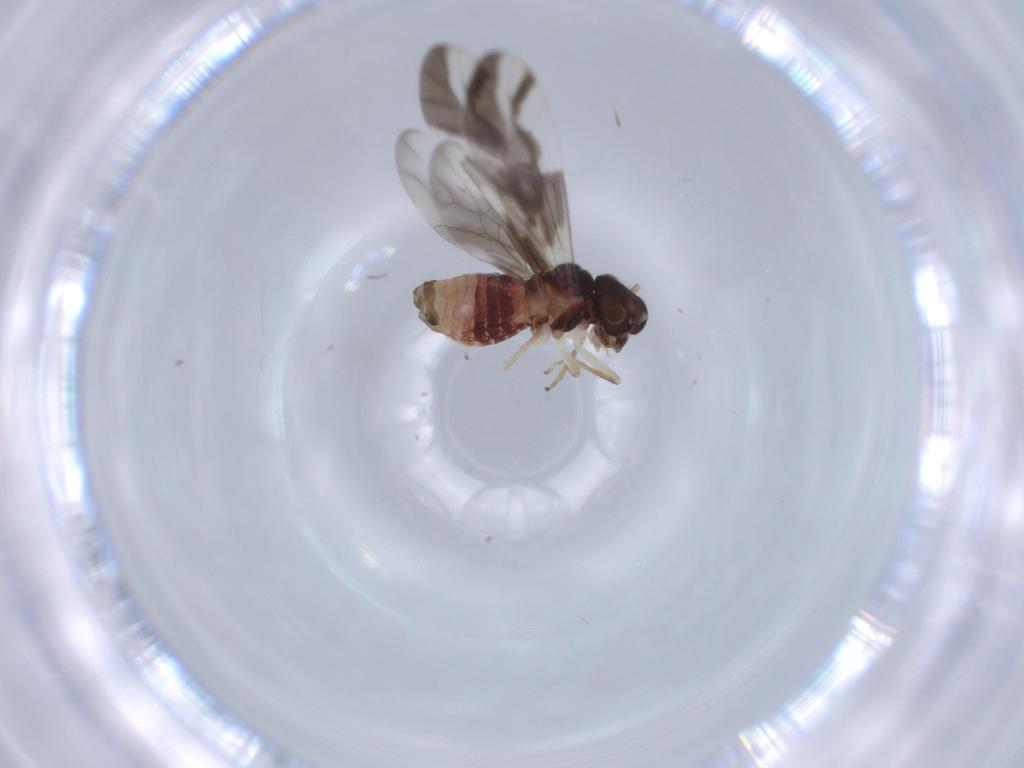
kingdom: Animalia
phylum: Arthropoda
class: Insecta
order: Psocodea
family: Caeciliusidae
